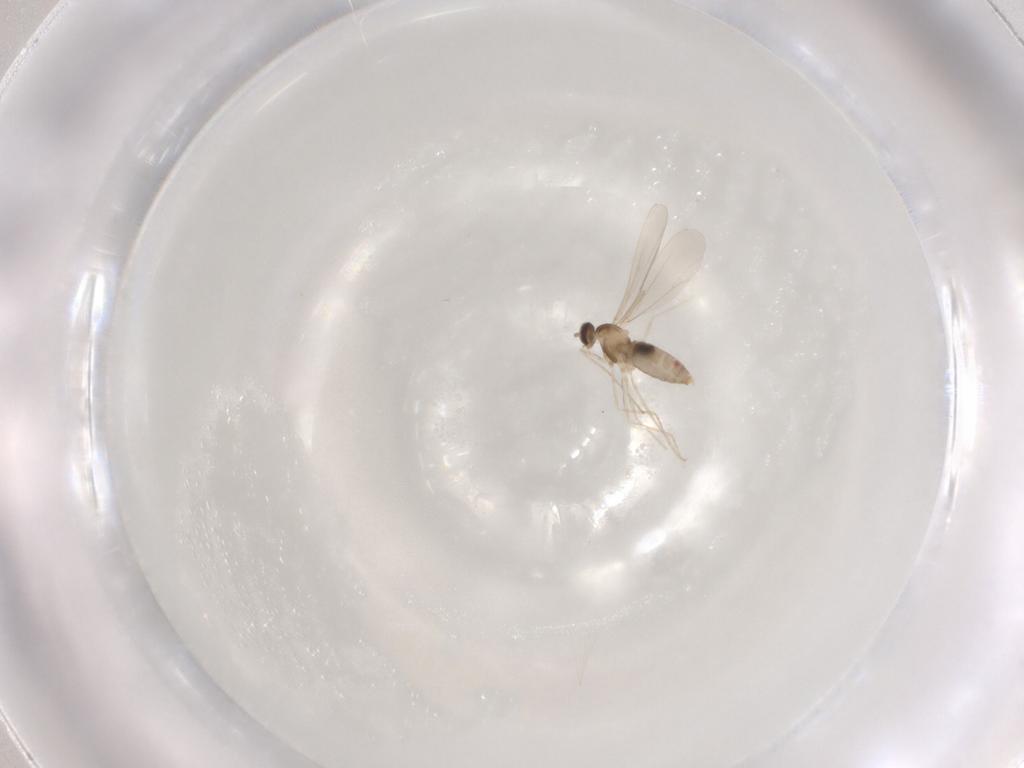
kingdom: Animalia
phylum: Arthropoda
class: Insecta
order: Diptera
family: Cecidomyiidae
